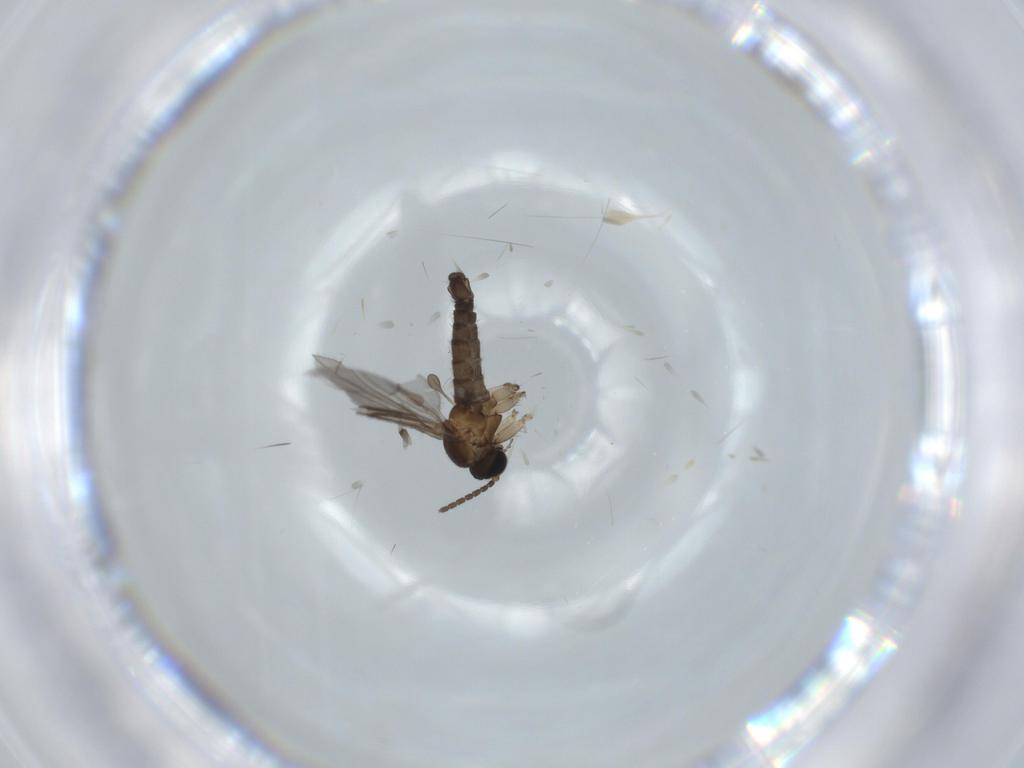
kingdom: Animalia
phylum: Arthropoda
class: Insecta
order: Diptera
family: Sciaridae
